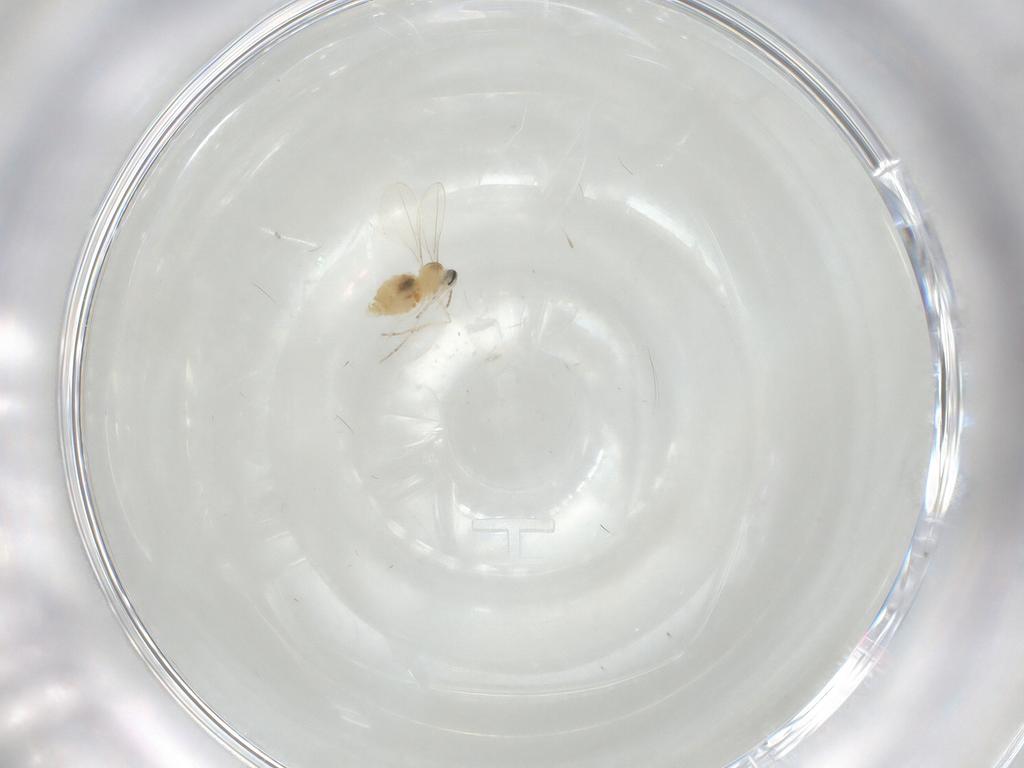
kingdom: Animalia
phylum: Arthropoda
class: Insecta
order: Diptera
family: Cecidomyiidae
